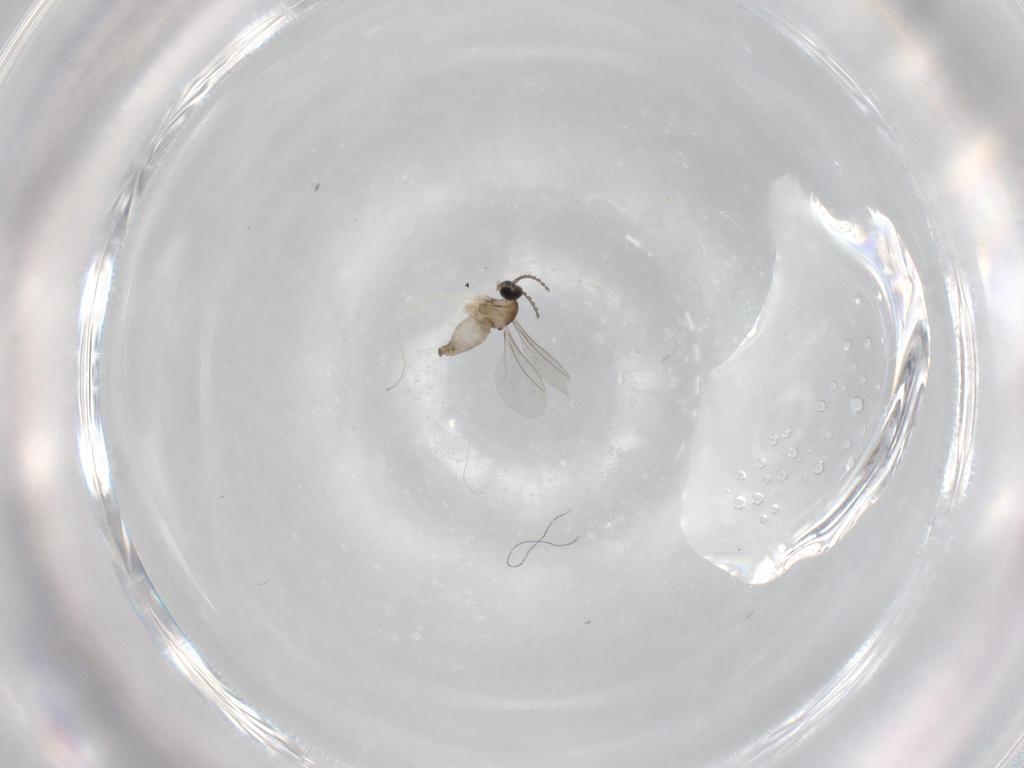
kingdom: Animalia
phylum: Arthropoda
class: Insecta
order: Diptera
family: Cecidomyiidae
